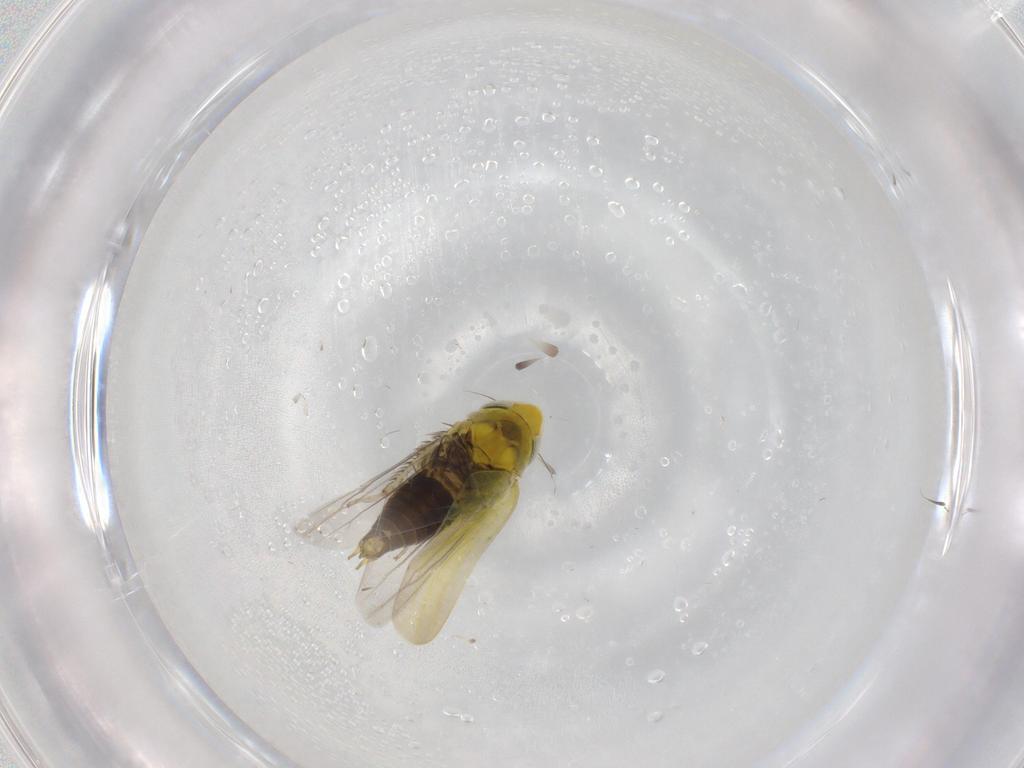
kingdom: Animalia
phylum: Arthropoda
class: Insecta
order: Hemiptera
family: Cicadellidae
